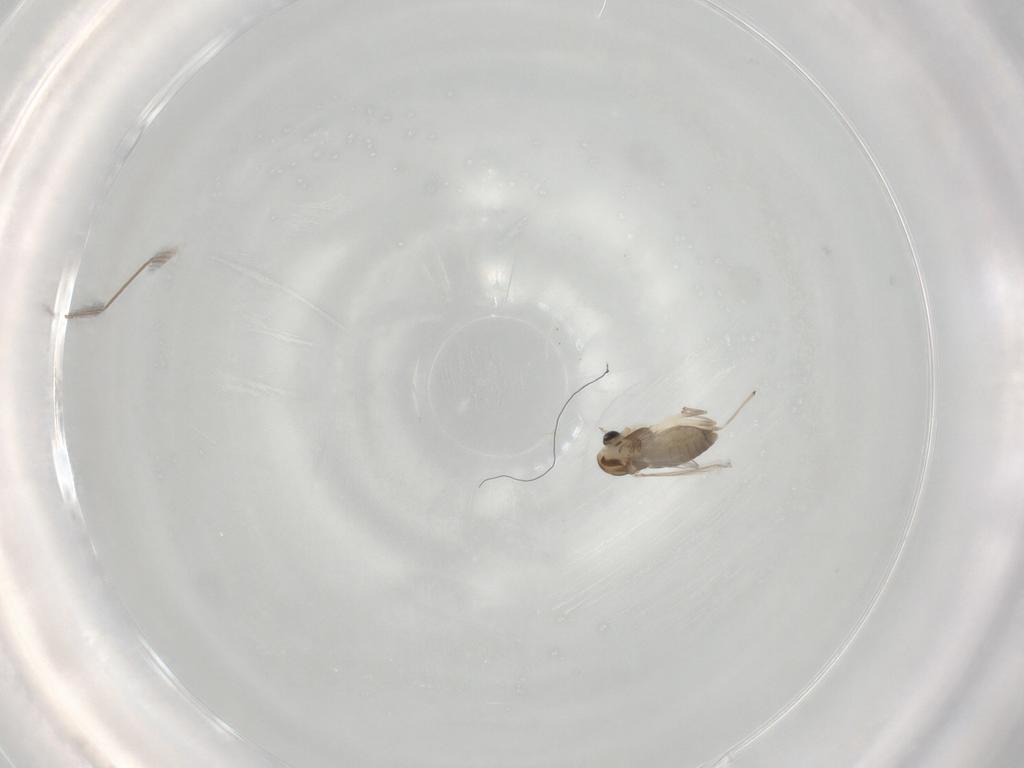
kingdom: Animalia
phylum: Arthropoda
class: Insecta
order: Diptera
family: Chironomidae
